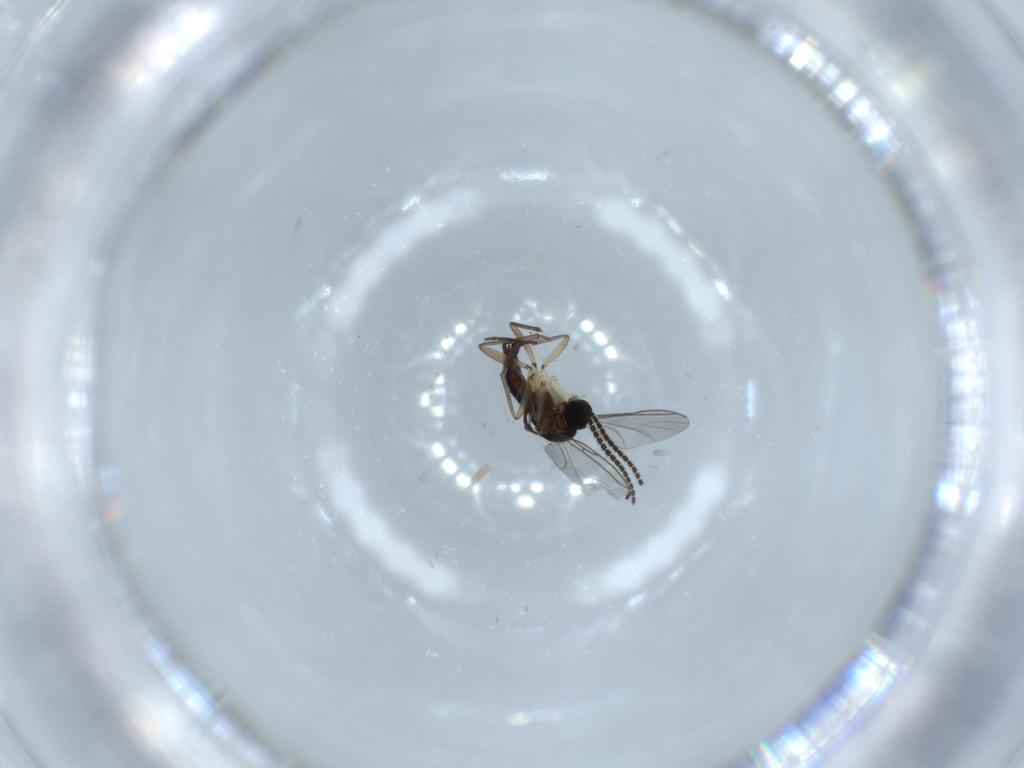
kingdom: Animalia
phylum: Arthropoda
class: Insecta
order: Diptera
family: Sciaridae
